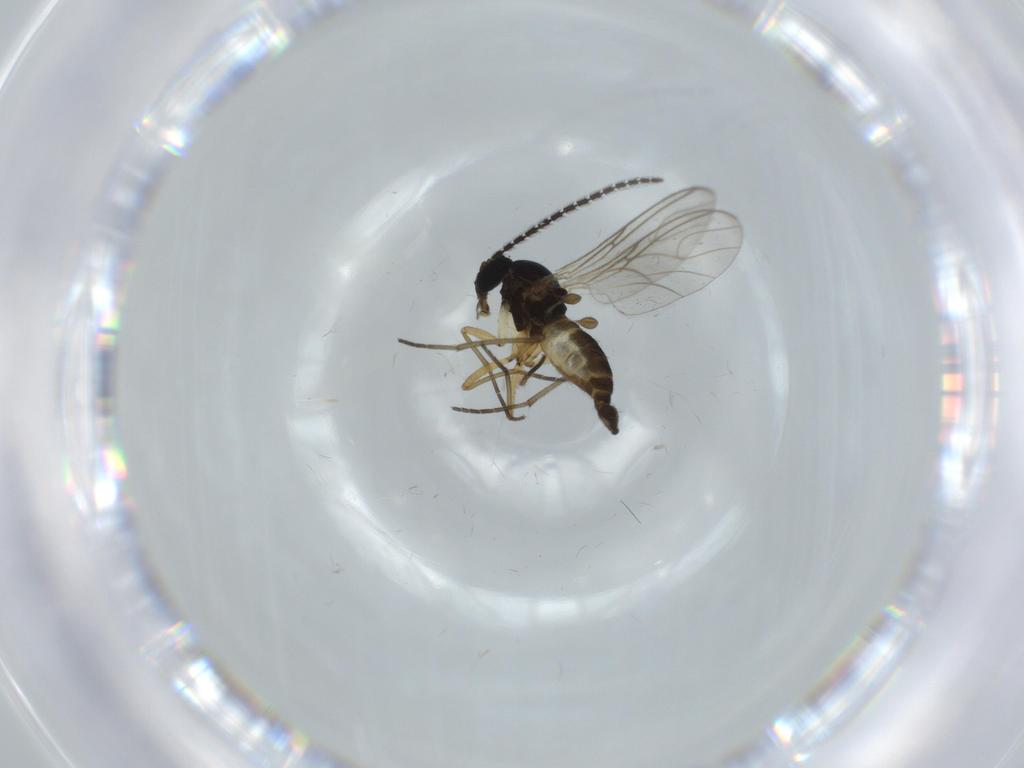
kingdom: Animalia
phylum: Arthropoda
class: Insecta
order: Diptera
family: Sciaridae
